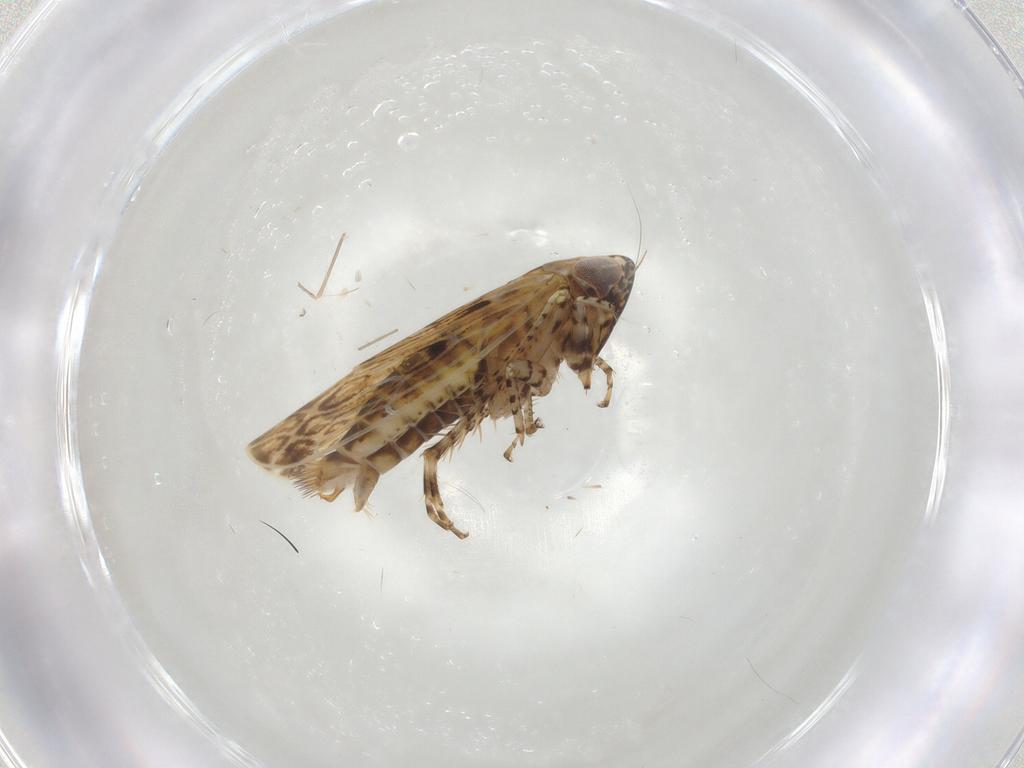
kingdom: Animalia
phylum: Arthropoda
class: Insecta
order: Hemiptera
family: Cicadellidae
